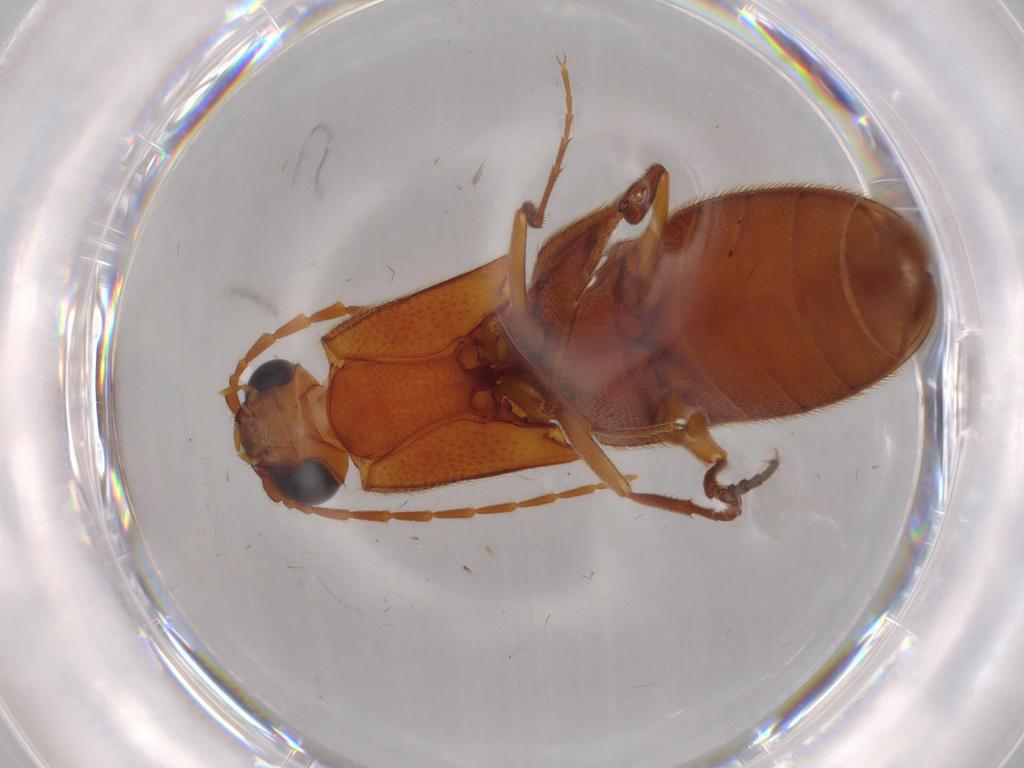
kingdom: Animalia
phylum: Arthropoda
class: Insecta
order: Coleoptera
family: Elateridae
